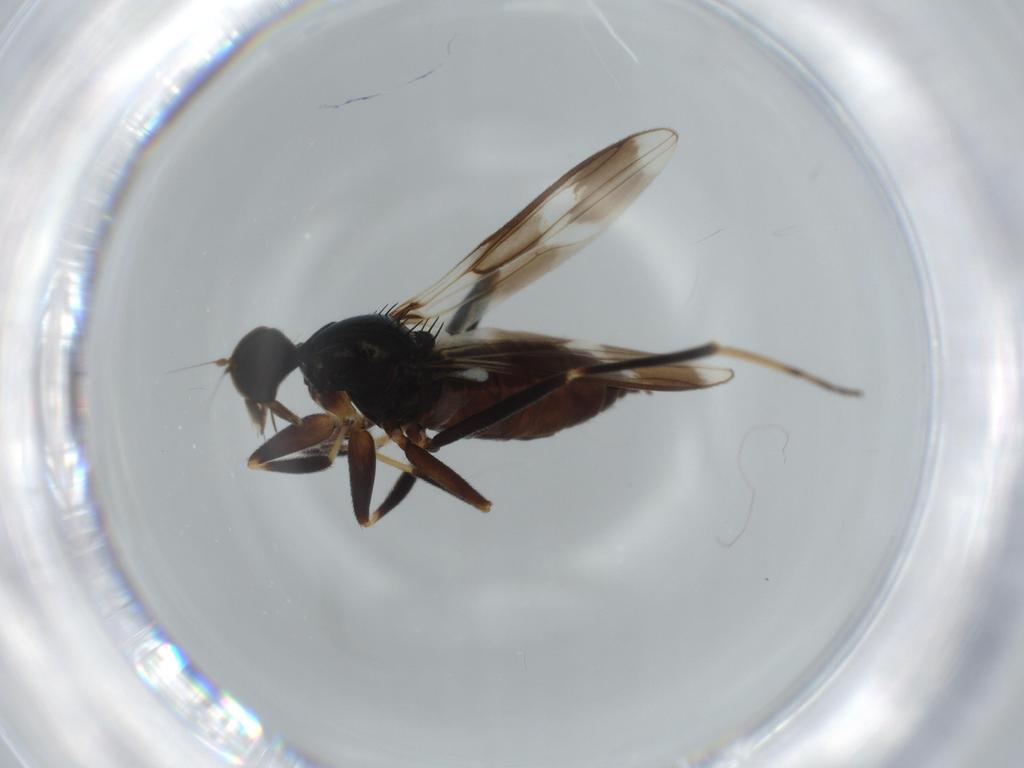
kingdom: Animalia
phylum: Arthropoda
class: Insecta
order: Diptera
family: Hybotidae
